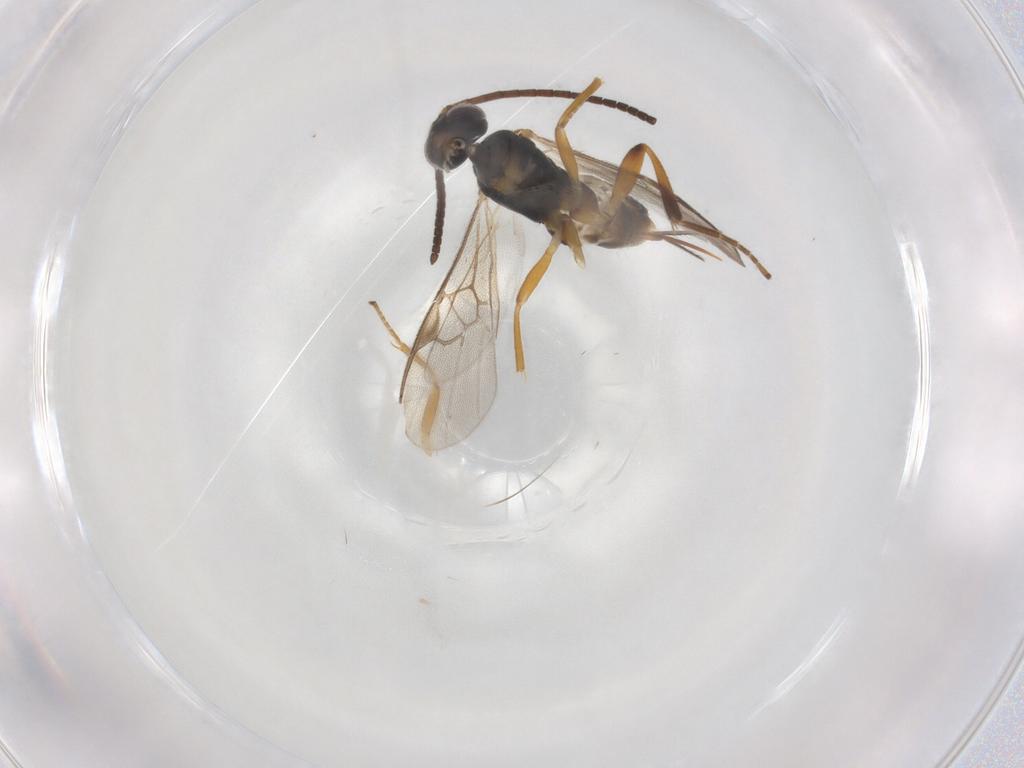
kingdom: Animalia
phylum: Arthropoda
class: Insecta
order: Hymenoptera
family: Braconidae
